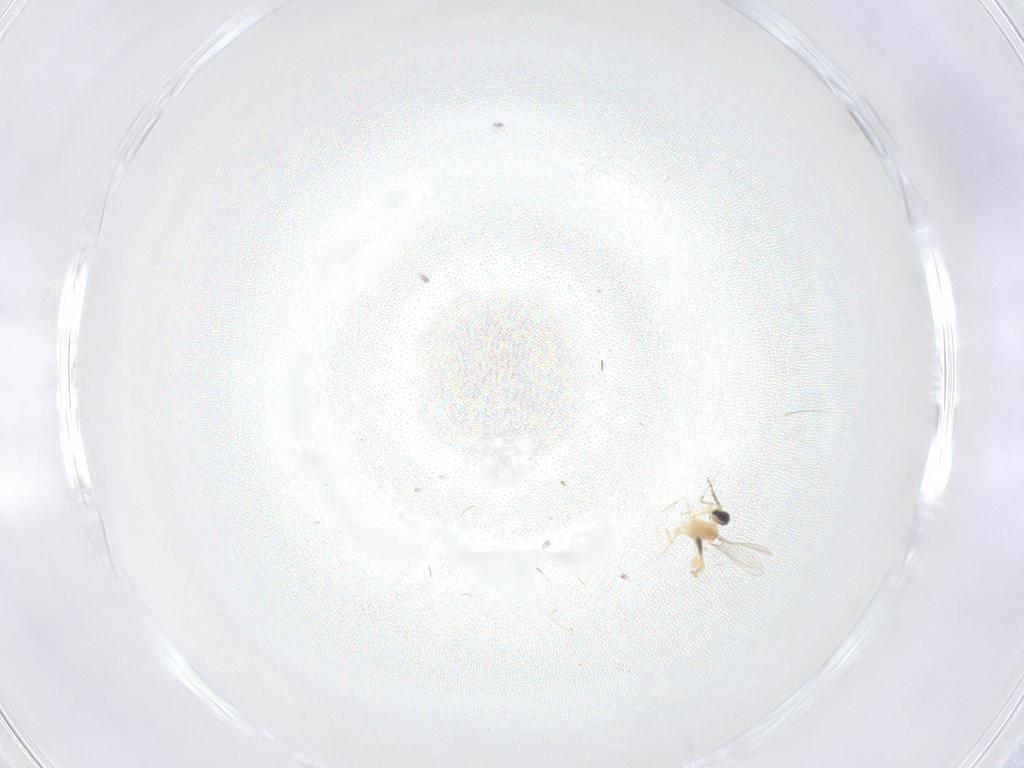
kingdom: Animalia
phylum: Arthropoda
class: Insecta
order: Diptera
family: Cecidomyiidae
